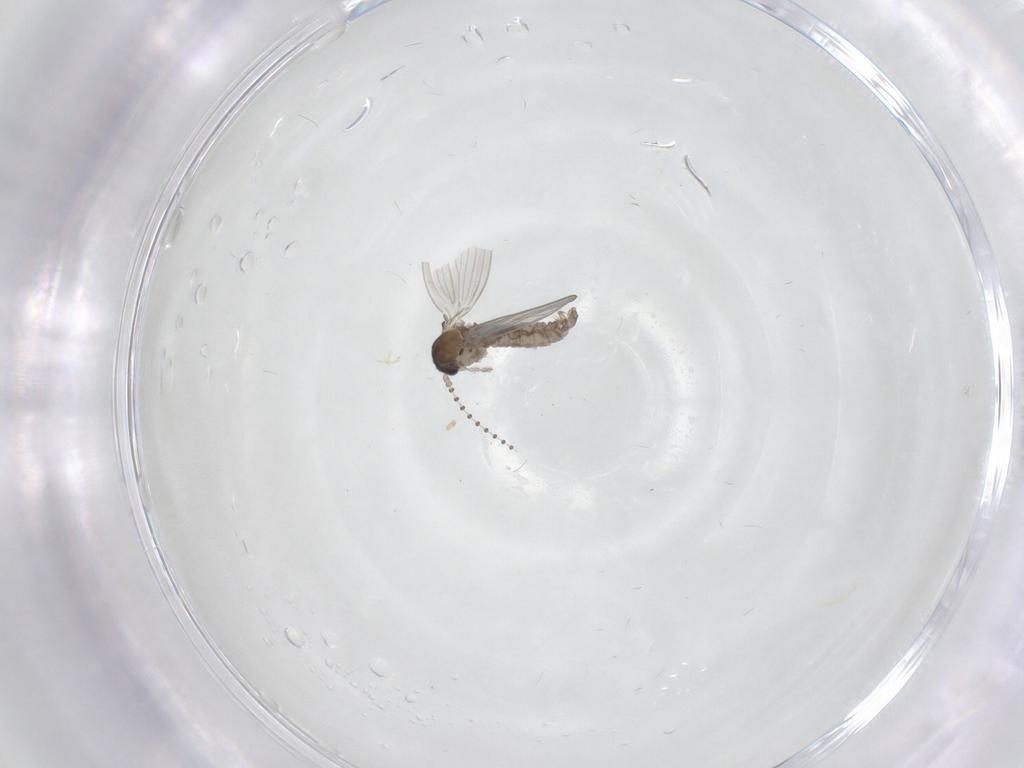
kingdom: Animalia
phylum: Arthropoda
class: Insecta
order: Diptera
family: Psychodidae
